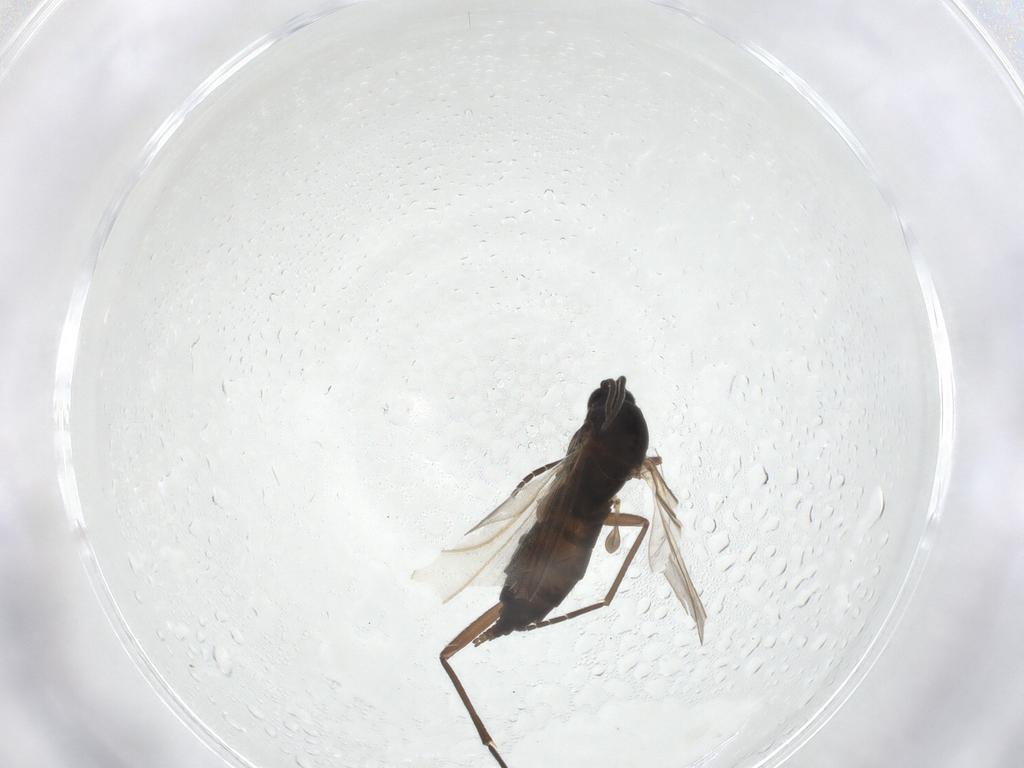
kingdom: Animalia
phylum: Arthropoda
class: Insecta
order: Diptera
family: Sciaridae
